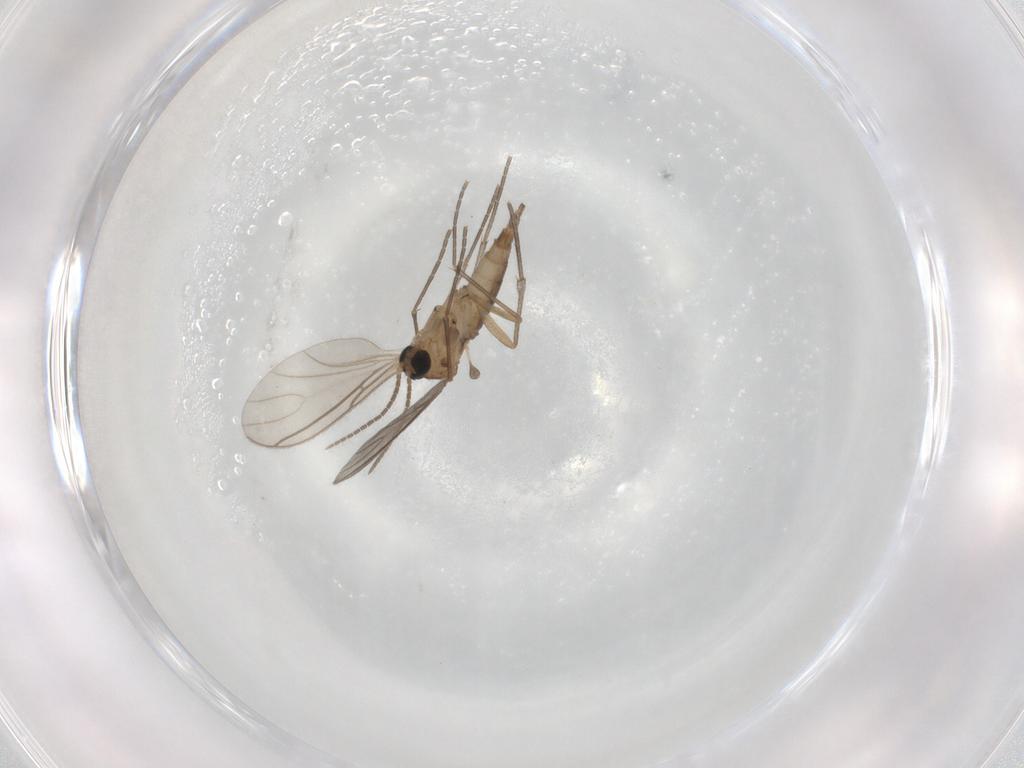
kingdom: Animalia
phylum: Arthropoda
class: Insecta
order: Diptera
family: Sciaridae
